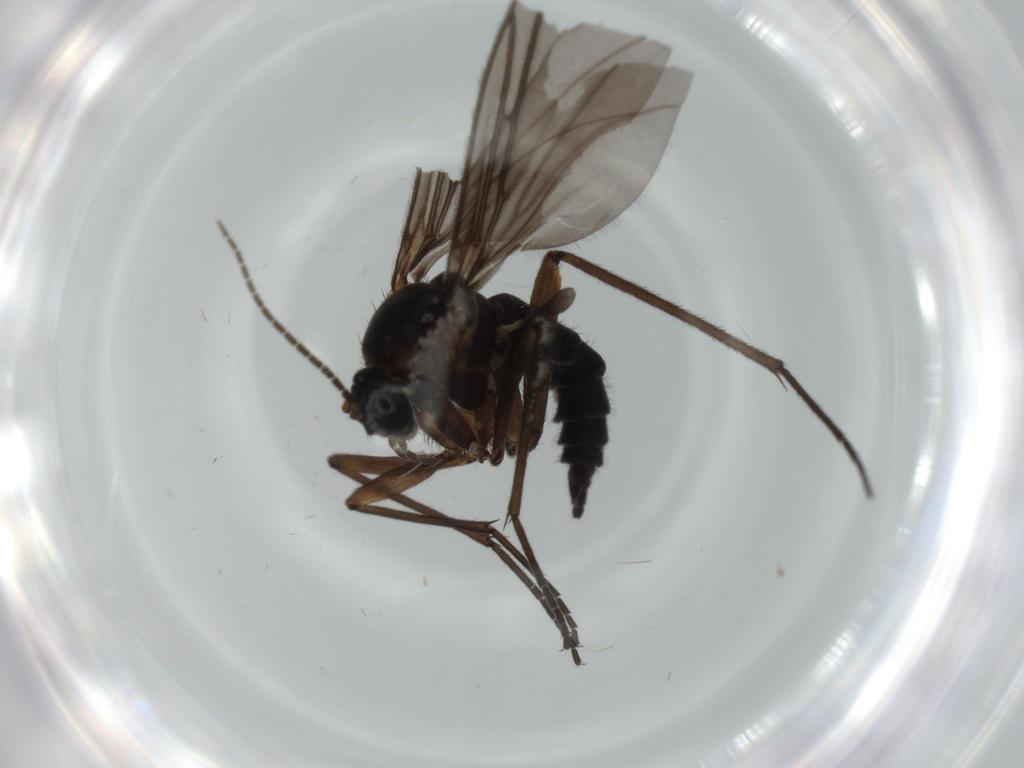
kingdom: Animalia
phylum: Arthropoda
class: Insecta
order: Diptera
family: Sciaridae
